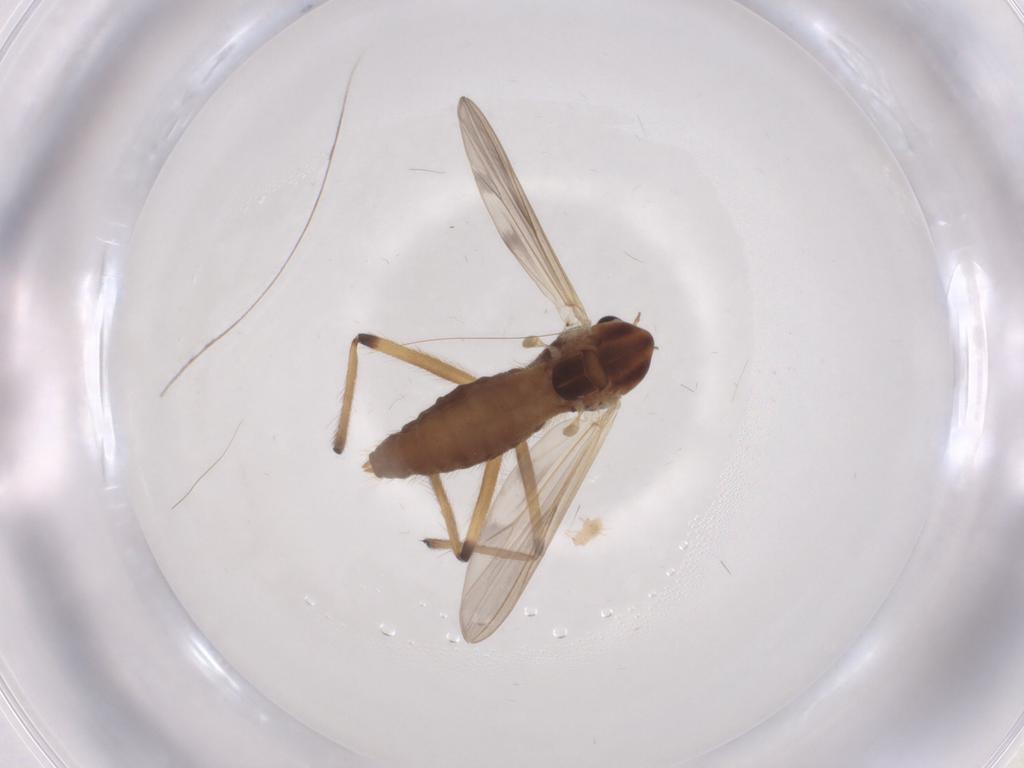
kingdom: Animalia
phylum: Arthropoda
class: Insecta
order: Diptera
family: Chironomidae
